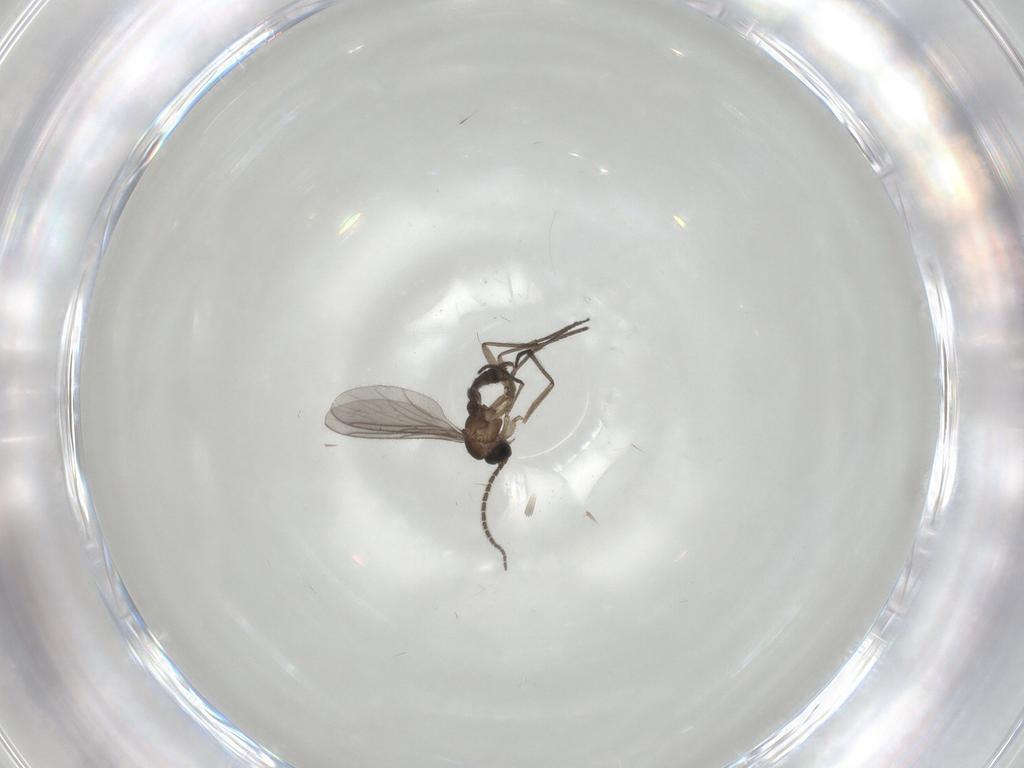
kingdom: Animalia
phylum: Arthropoda
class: Insecta
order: Diptera
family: Sciaridae
